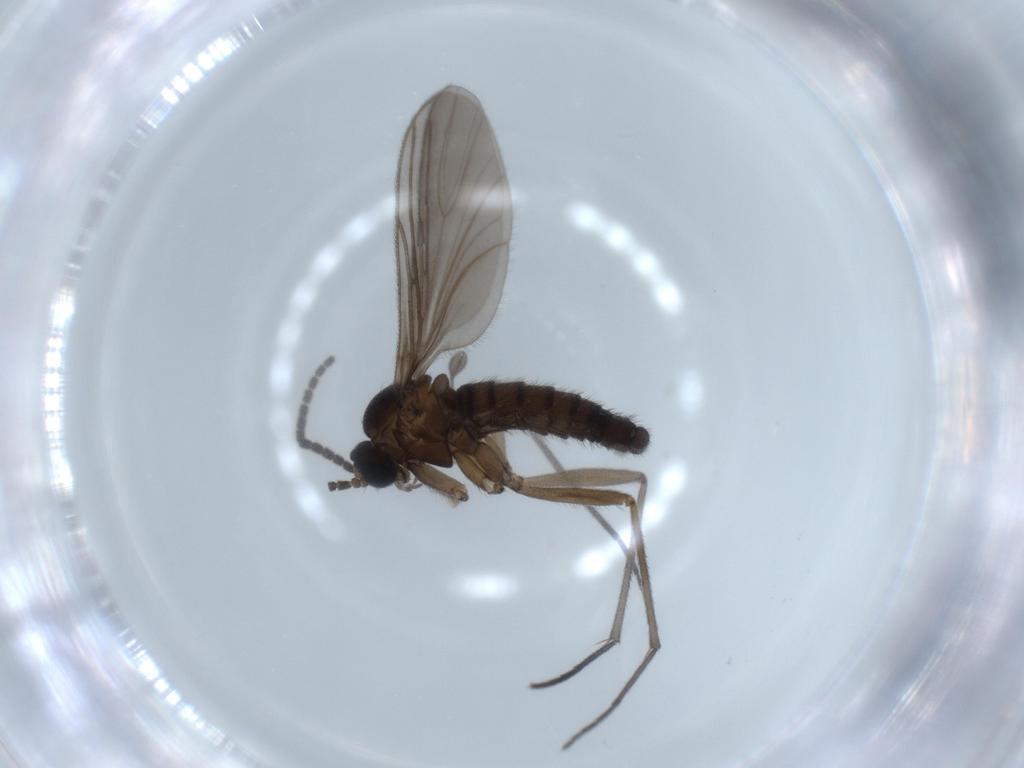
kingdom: Animalia
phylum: Arthropoda
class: Insecta
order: Diptera
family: Sciaridae
